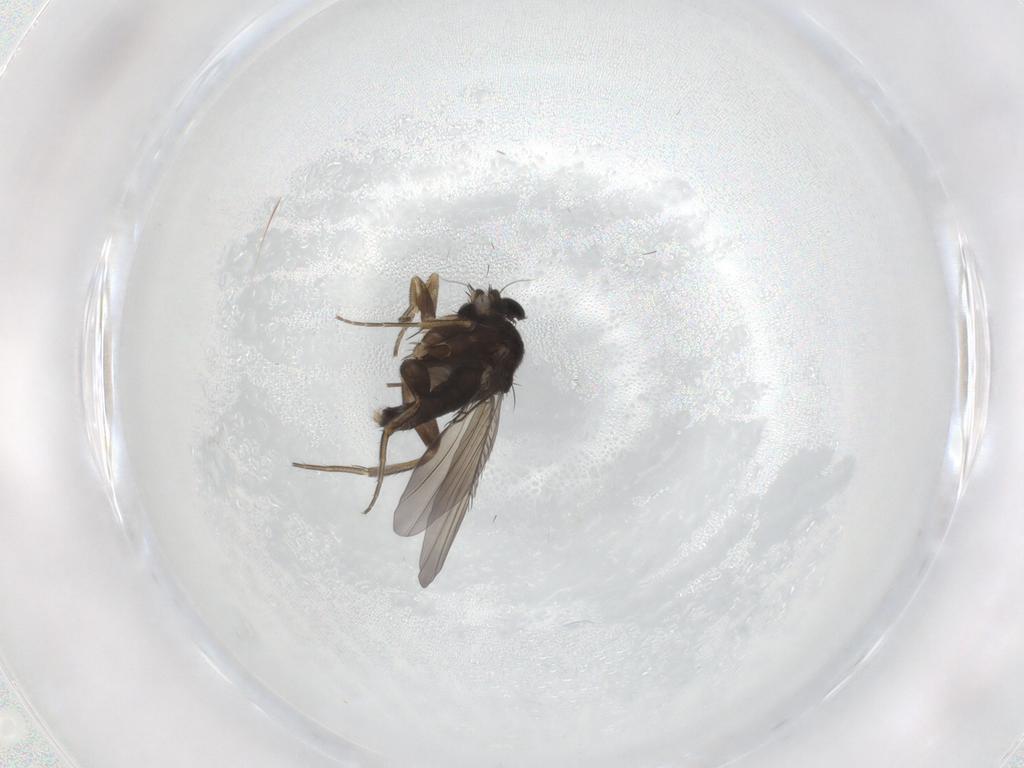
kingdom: Animalia
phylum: Arthropoda
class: Insecta
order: Diptera
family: Phoridae
